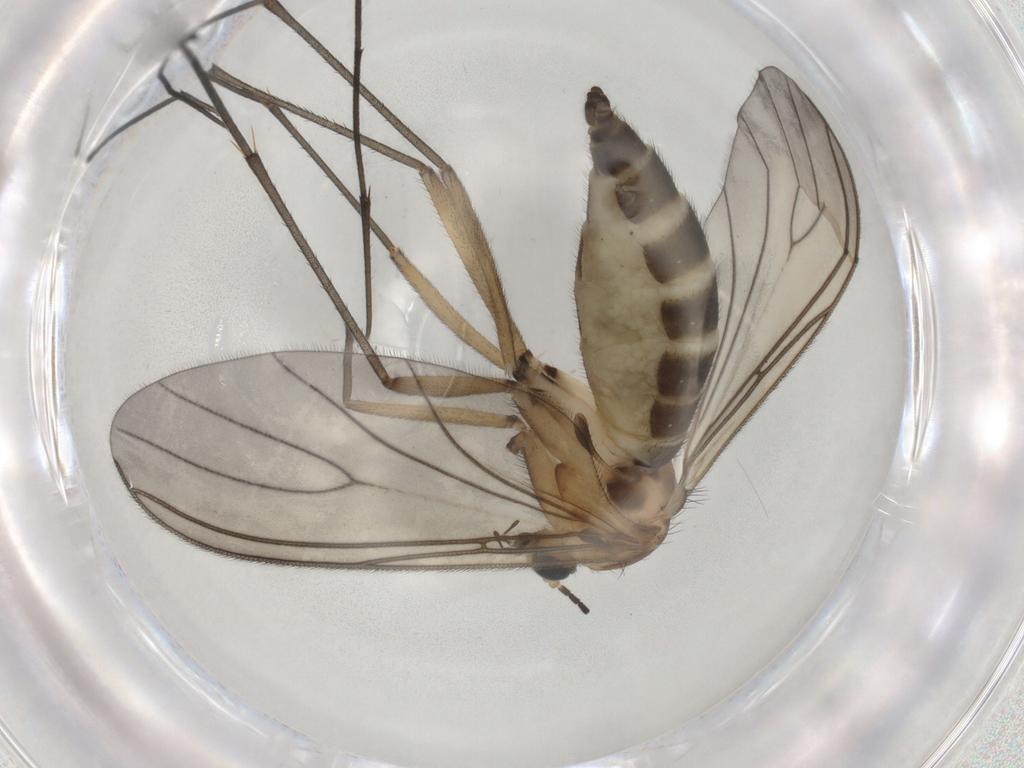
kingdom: Animalia
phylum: Arthropoda
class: Insecta
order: Diptera
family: Sciaridae
